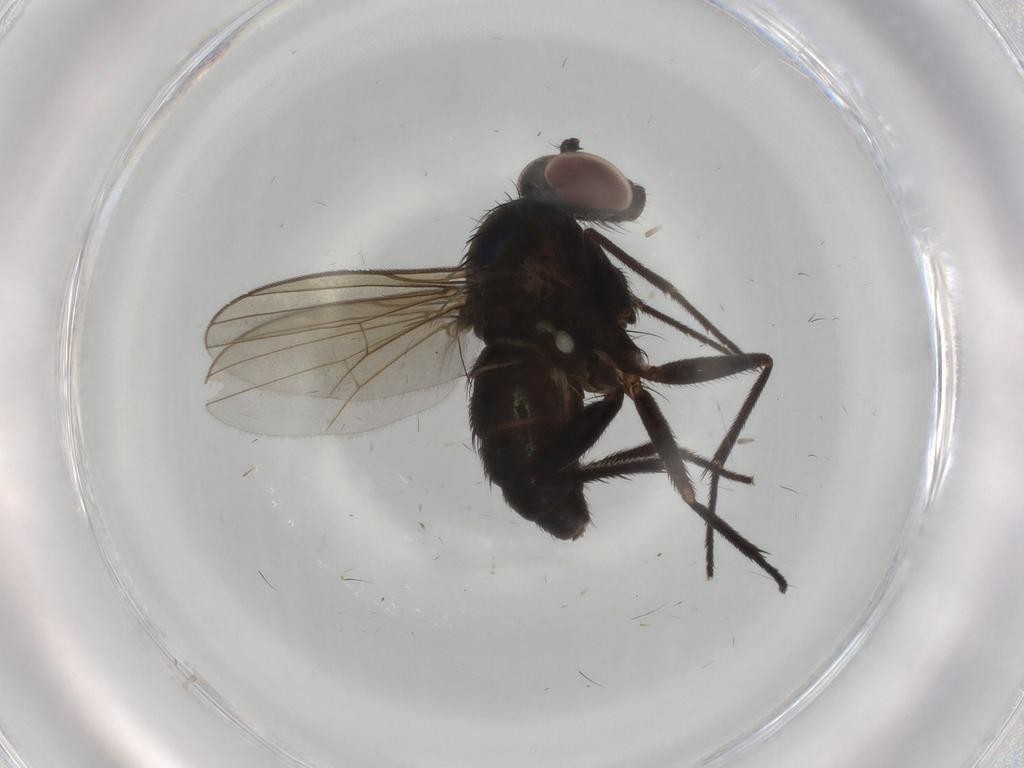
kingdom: Animalia
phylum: Arthropoda
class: Insecta
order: Diptera
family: Dolichopodidae
